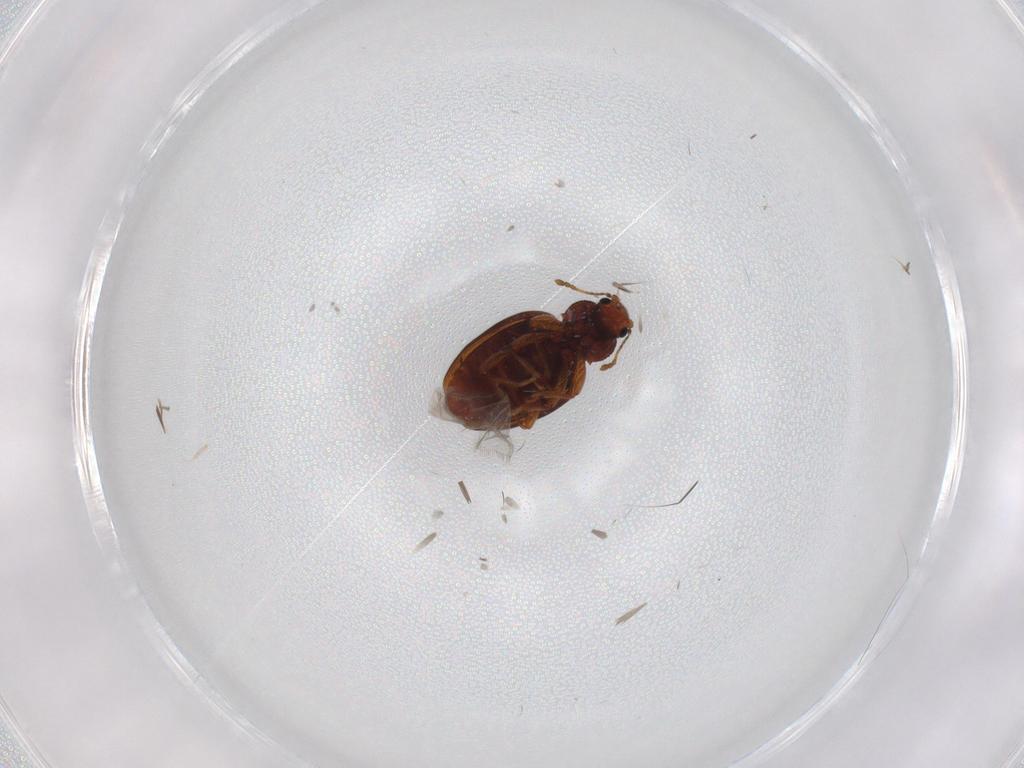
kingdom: Animalia
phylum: Arthropoda
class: Insecta
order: Coleoptera
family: Latridiidae
